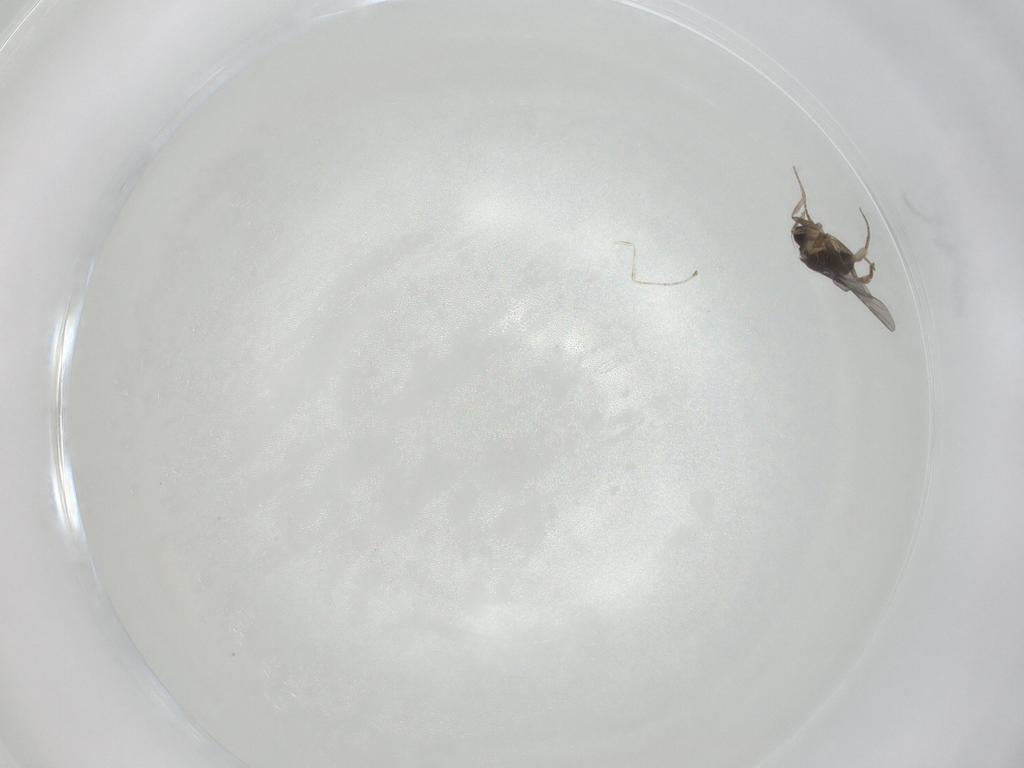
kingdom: Animalia
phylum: Arthropoda
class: Insecta
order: Diptera
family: Cecidomyiidae
